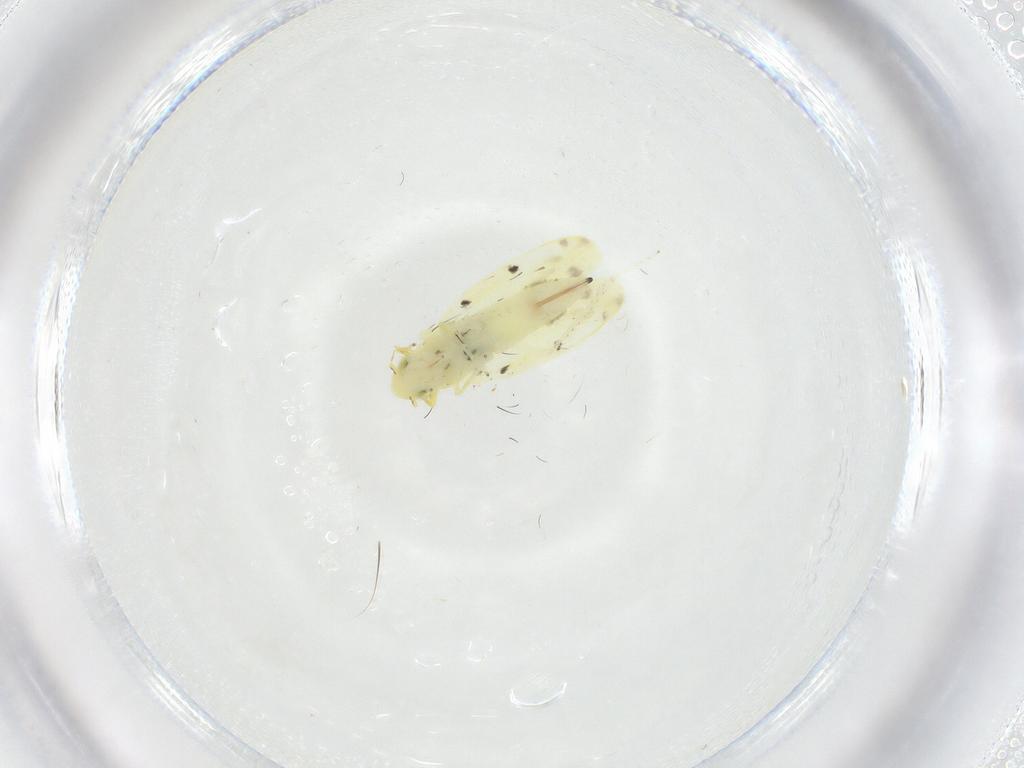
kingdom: Animalia
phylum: Arthropoda
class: Insecta
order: Hemiptera
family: Cicadellidae
